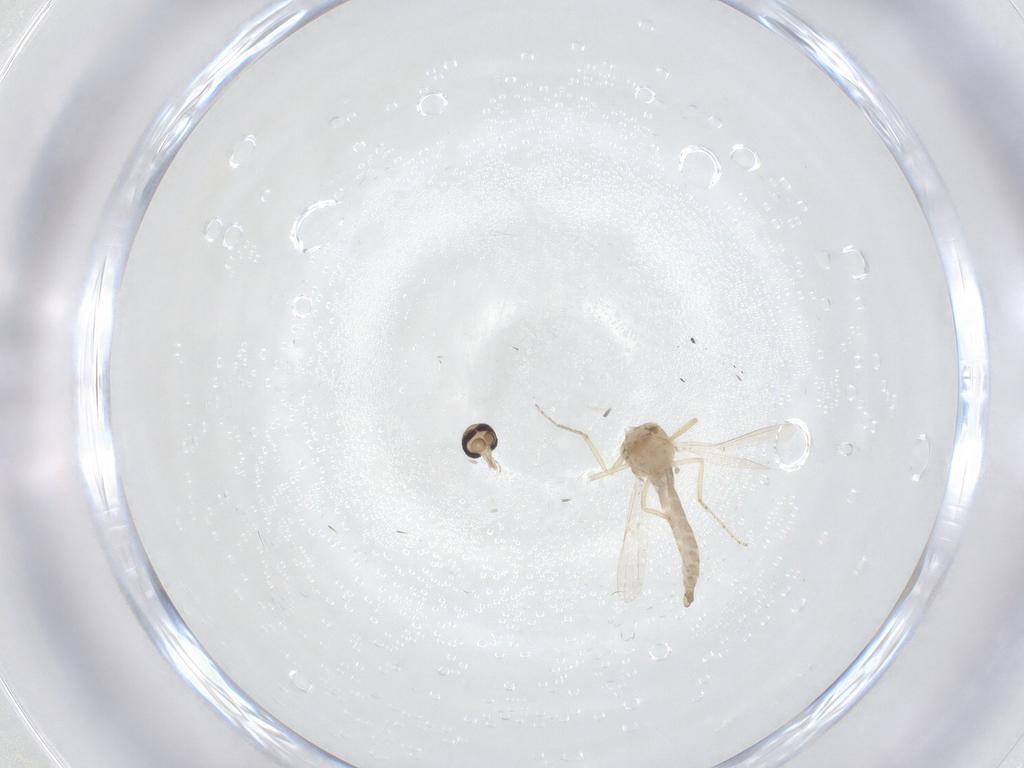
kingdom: Animalia
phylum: Arthropoda
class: Insecta
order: Diptera
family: Ceratopogonidae
